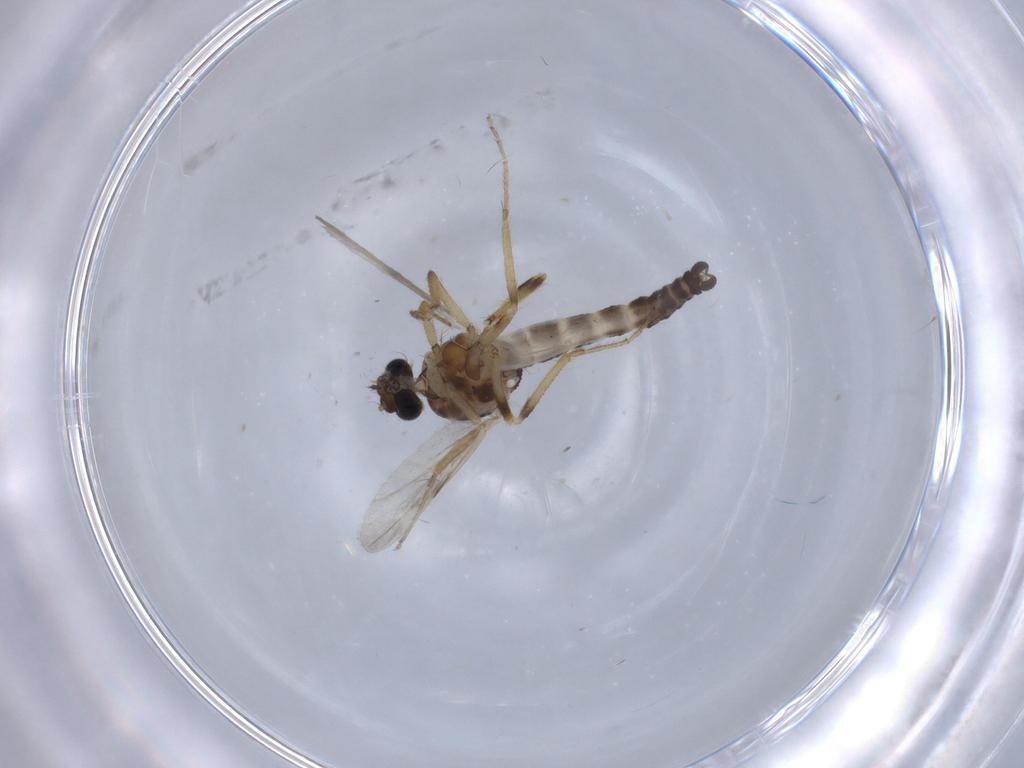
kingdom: Animalia
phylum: Arthropoda
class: Insecta
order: Diptera
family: Ceratopogonidae
